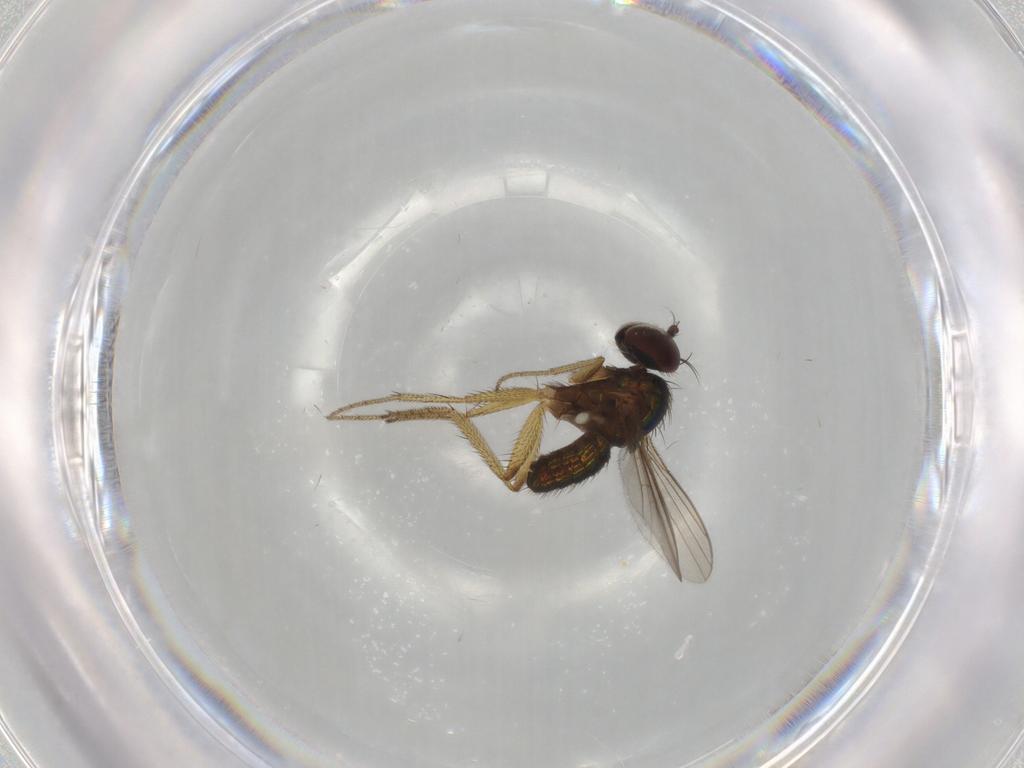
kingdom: Animalia
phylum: Arthropoda
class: Insecta
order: Diptera
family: Dolichopodidae
